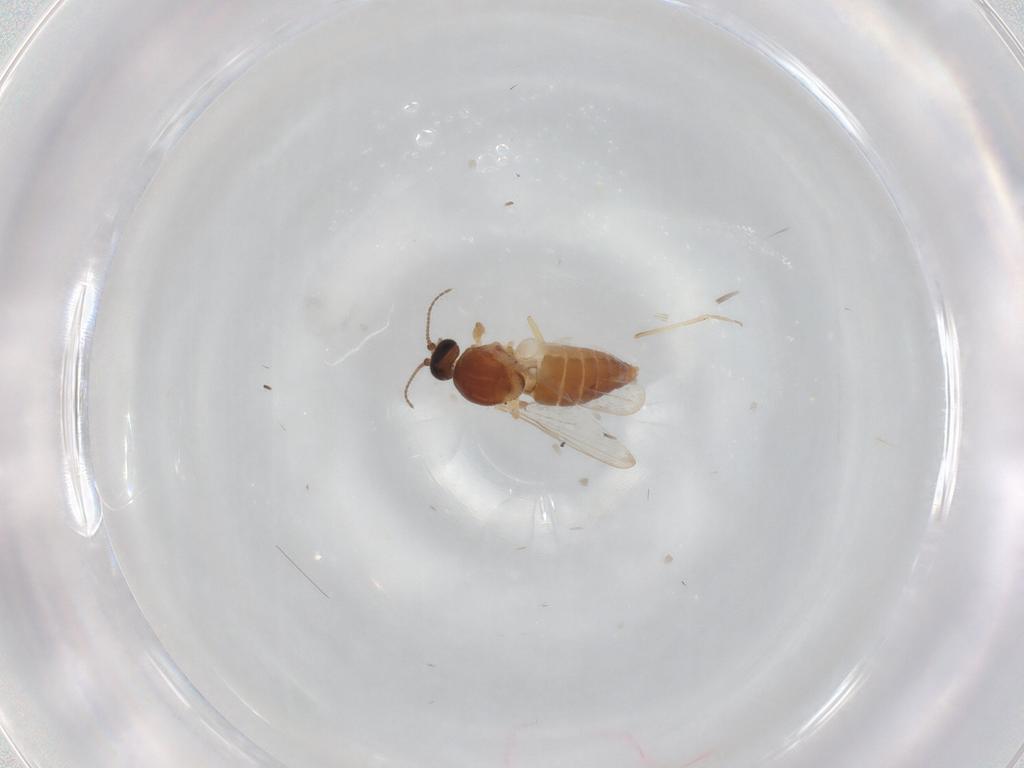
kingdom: Animalia
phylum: Arthropoda
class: Insecta
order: Diptera
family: Ceratopogonidae
